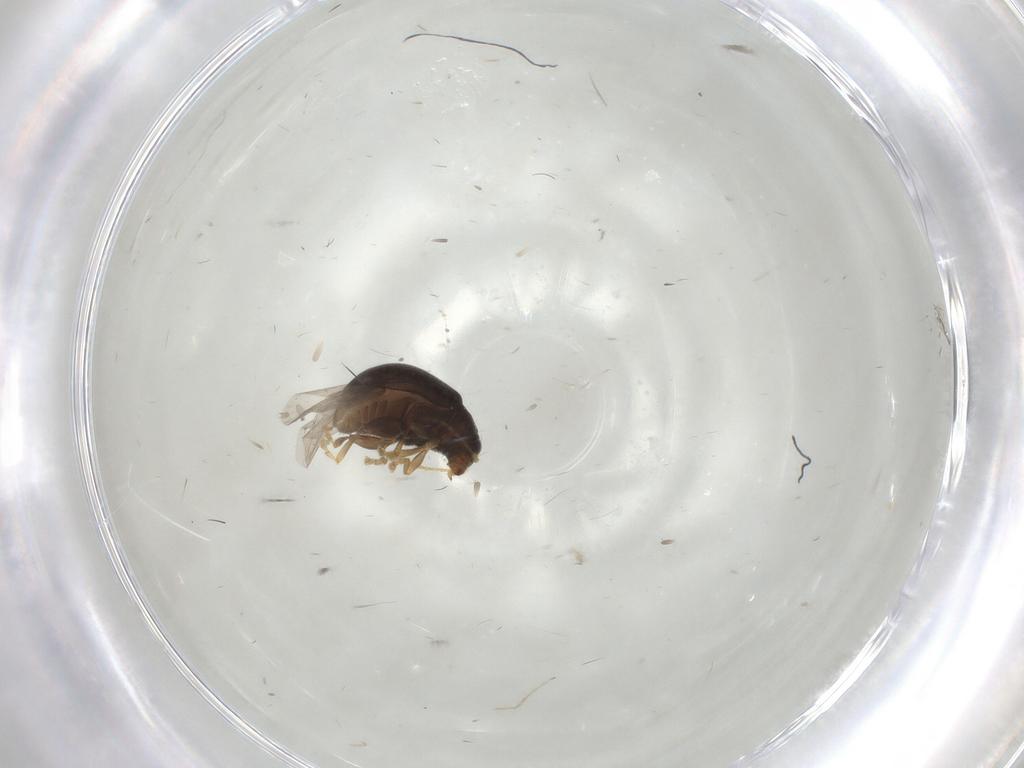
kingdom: Animalia
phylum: Arthropoda
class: Insecta
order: Coleoptera
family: Chrysomelidae
